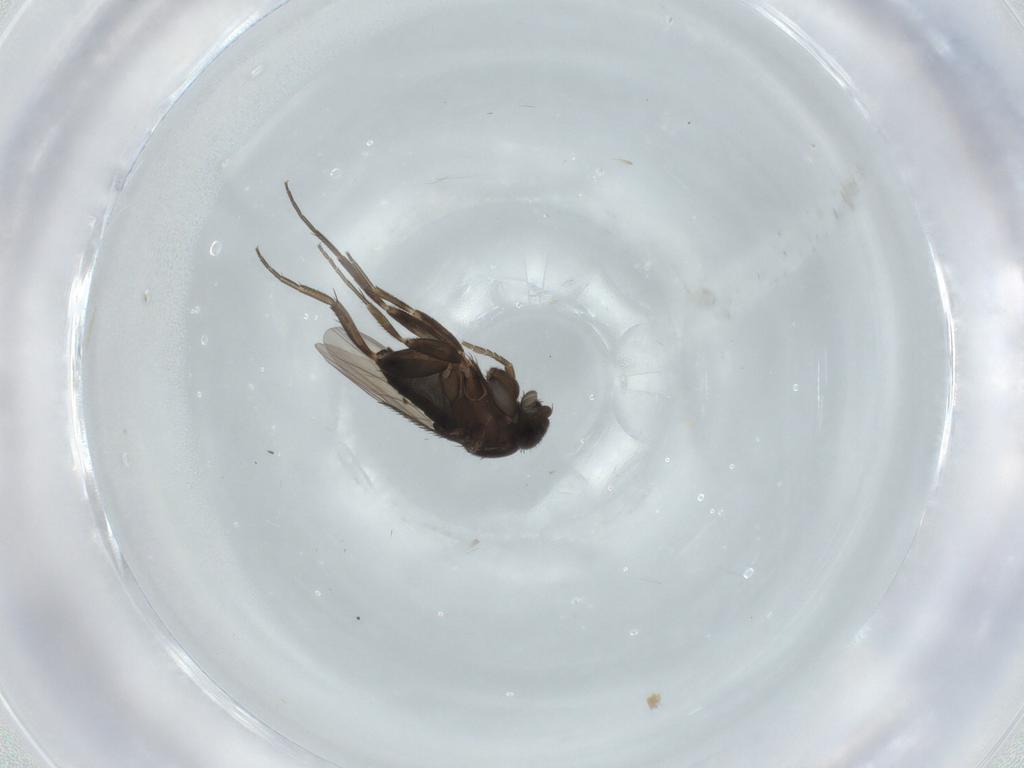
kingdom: Animalia
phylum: Arthropoda
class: Insecta
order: Diptera
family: Phoridae
